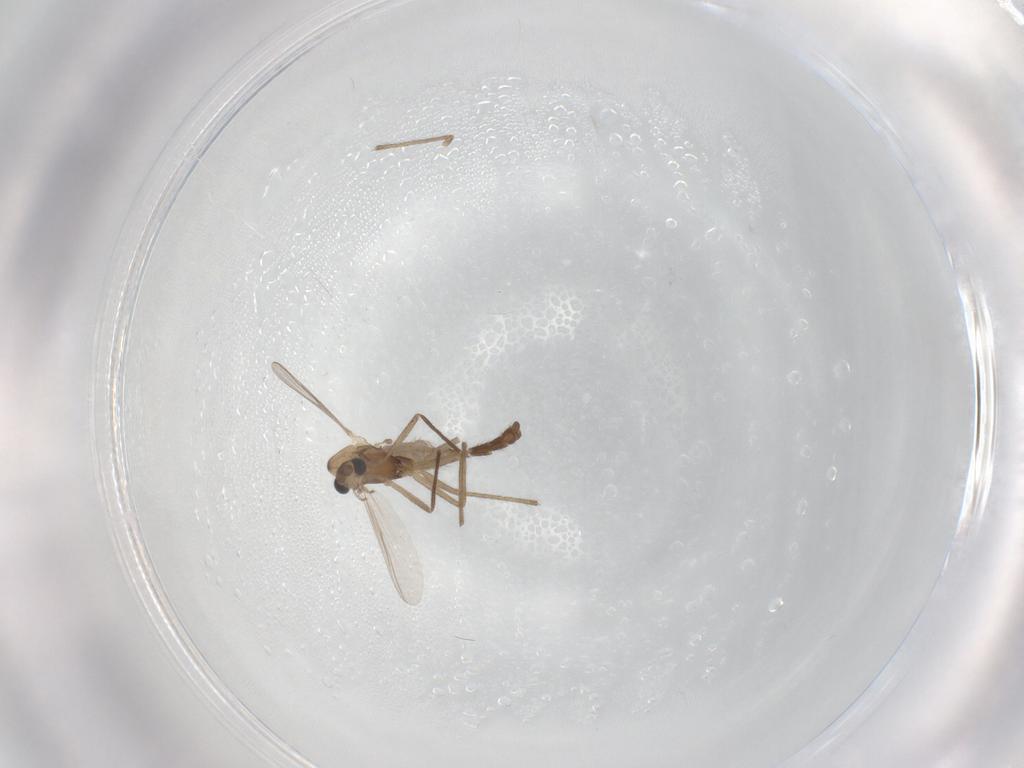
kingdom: Animalia
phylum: Arthropoda
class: Insecta
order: Diptera
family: Chironomidae
